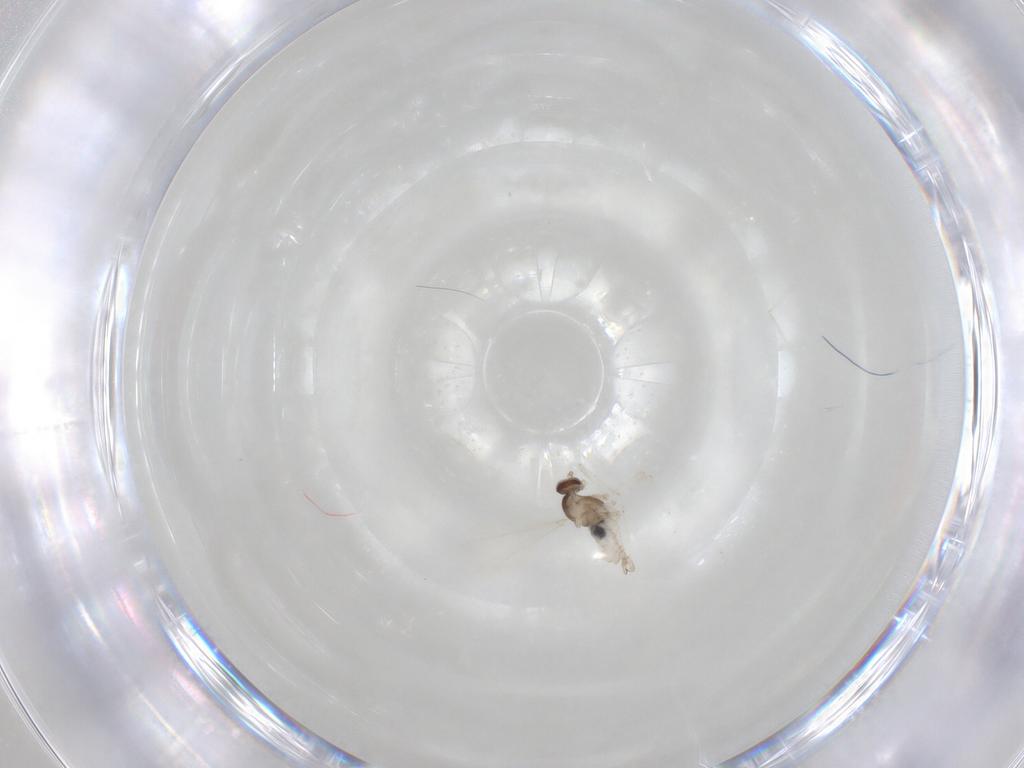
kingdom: Animalia
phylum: Arthropoda
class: Insecta
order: Diptera
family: Cecidomyiidae
